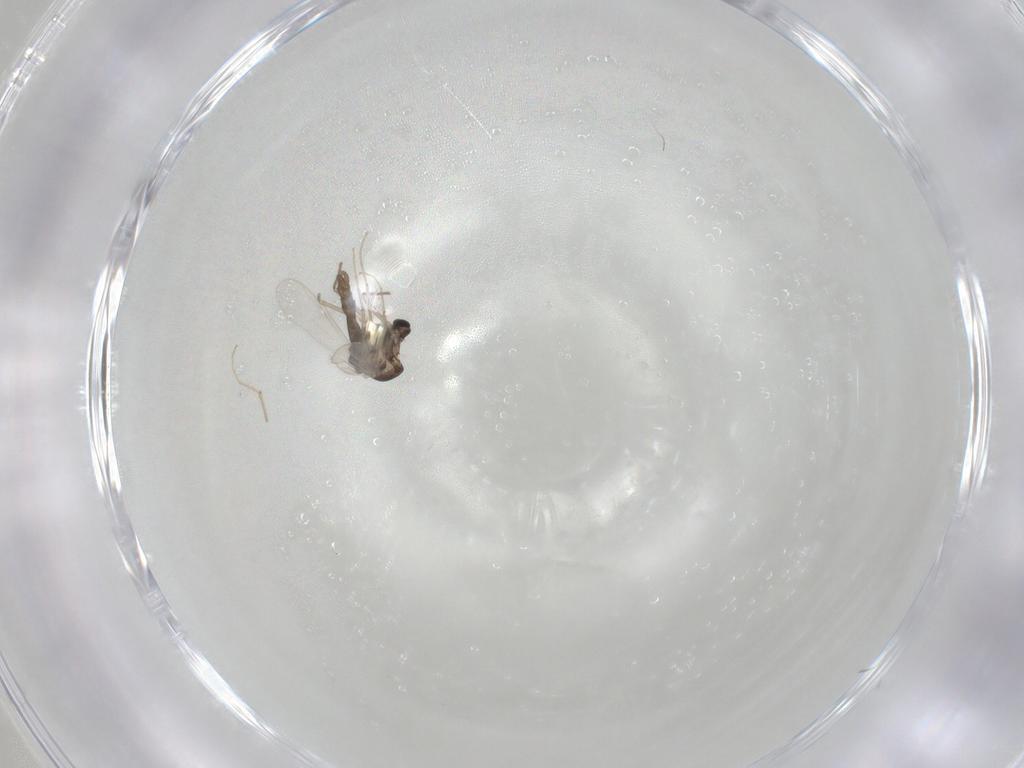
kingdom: Animalia
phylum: Arthropoda
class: Insecta
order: Diptera
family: Chironomidae
